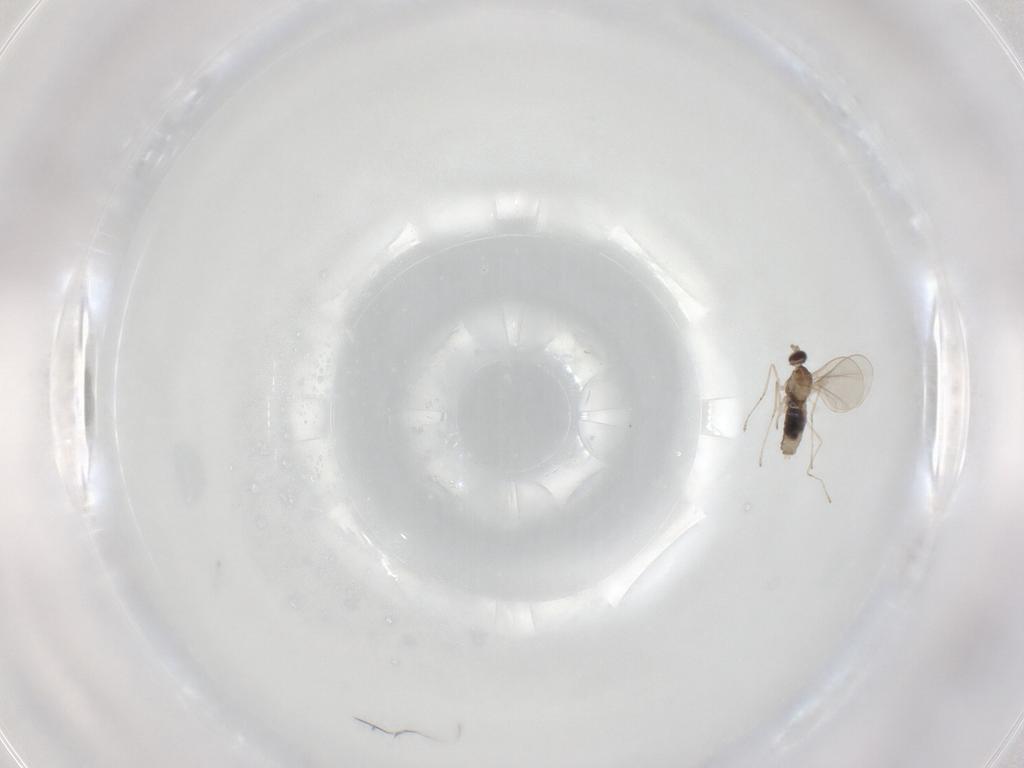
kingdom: Animalia
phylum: Arthropoda
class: Insecta
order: Diptera
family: Cecidomyiidae
